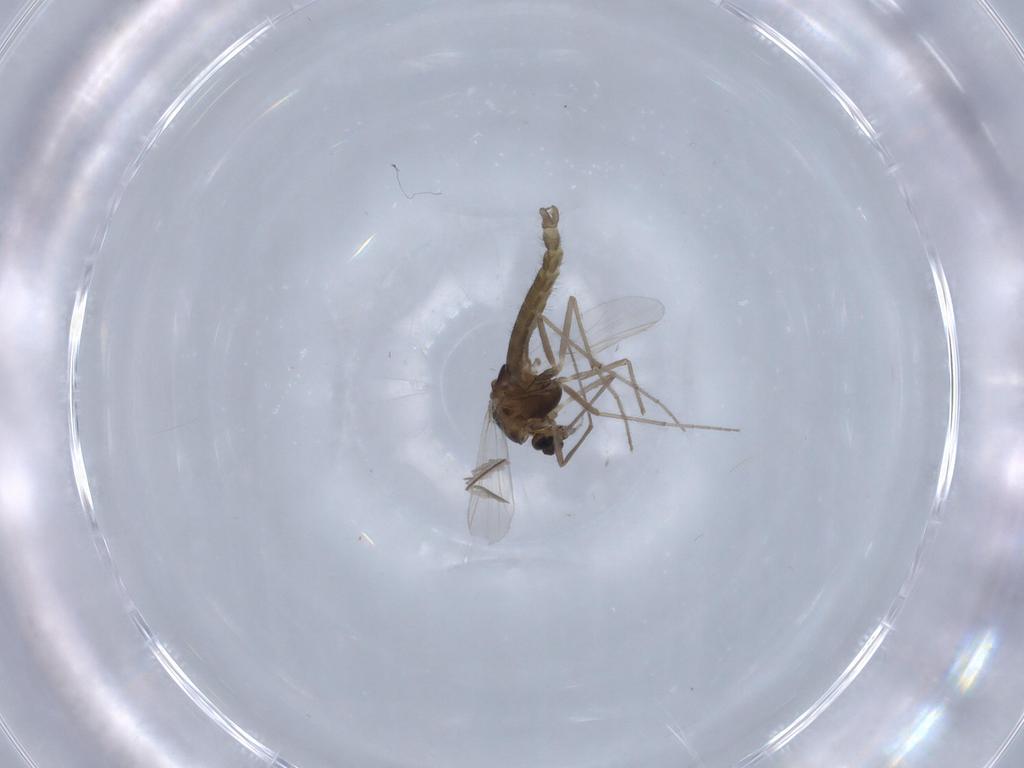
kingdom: Animalia
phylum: Arthropoda
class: Insecta
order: Diptera
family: Chironomidae
